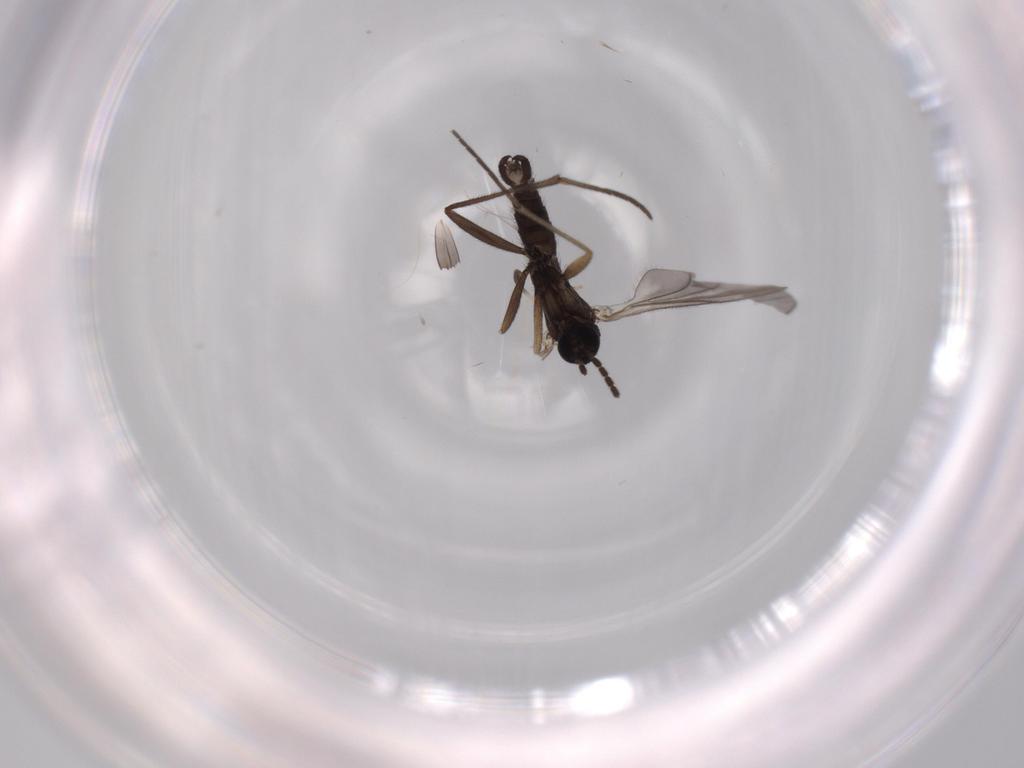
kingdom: Animalia
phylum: Arthropoda
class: Insecta
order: Diptera
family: Sciaridae
